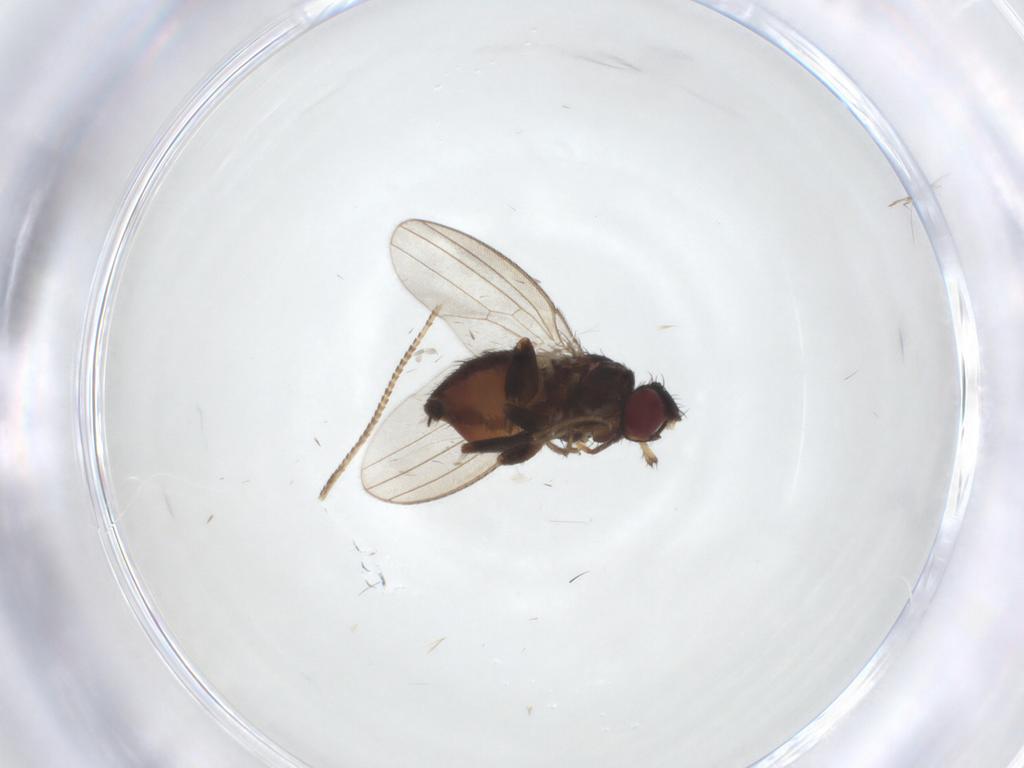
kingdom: Animalia
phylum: Arthropoda
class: Insecta
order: Diptera
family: Milichiidae
